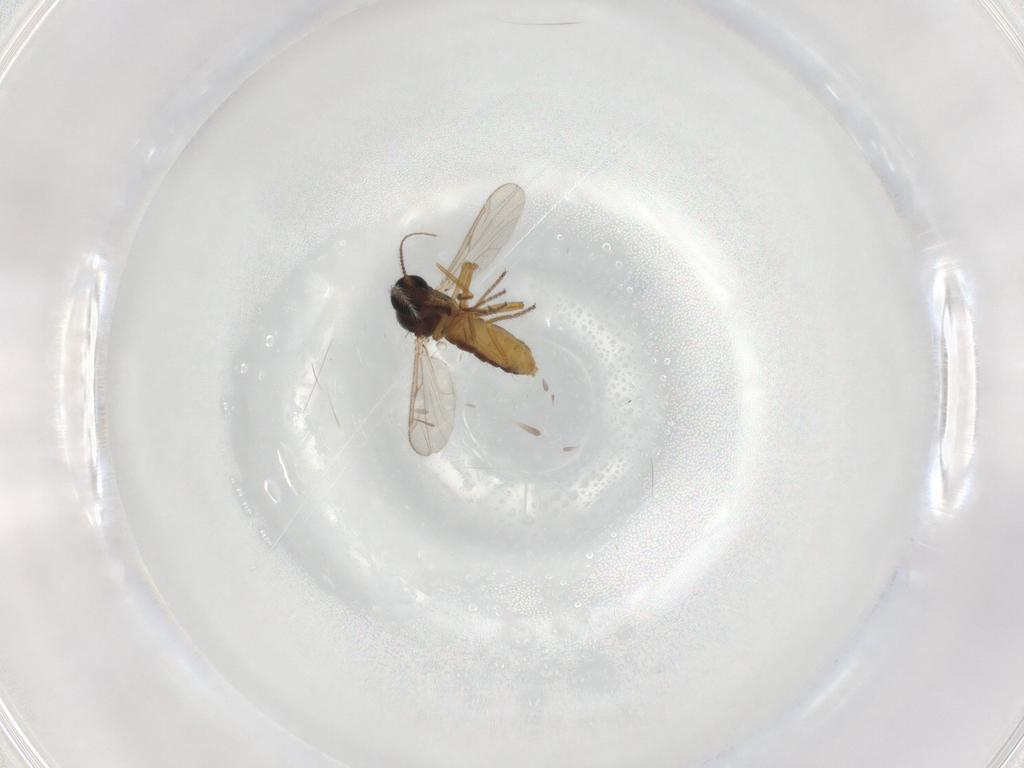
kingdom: Animalia
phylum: Arthropoda
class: Insecta
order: Diptera
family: Ceratopogonidae
